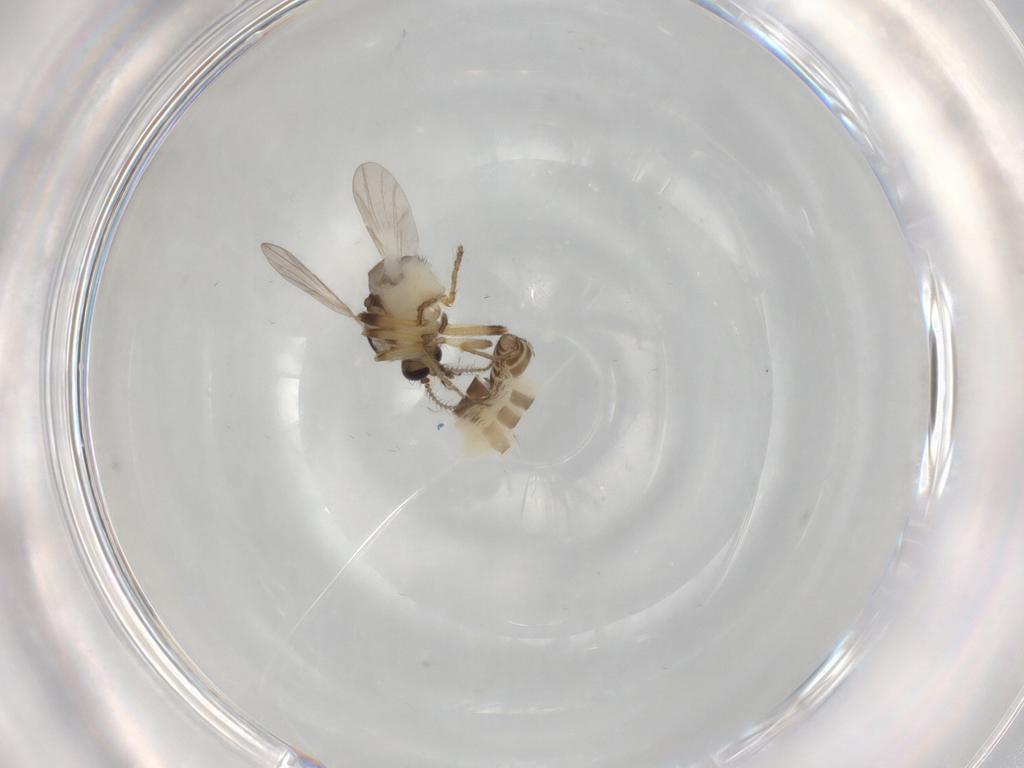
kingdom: Animalia
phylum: Arthropoda
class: Insecta
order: Diptera
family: Ceratopogonidae
